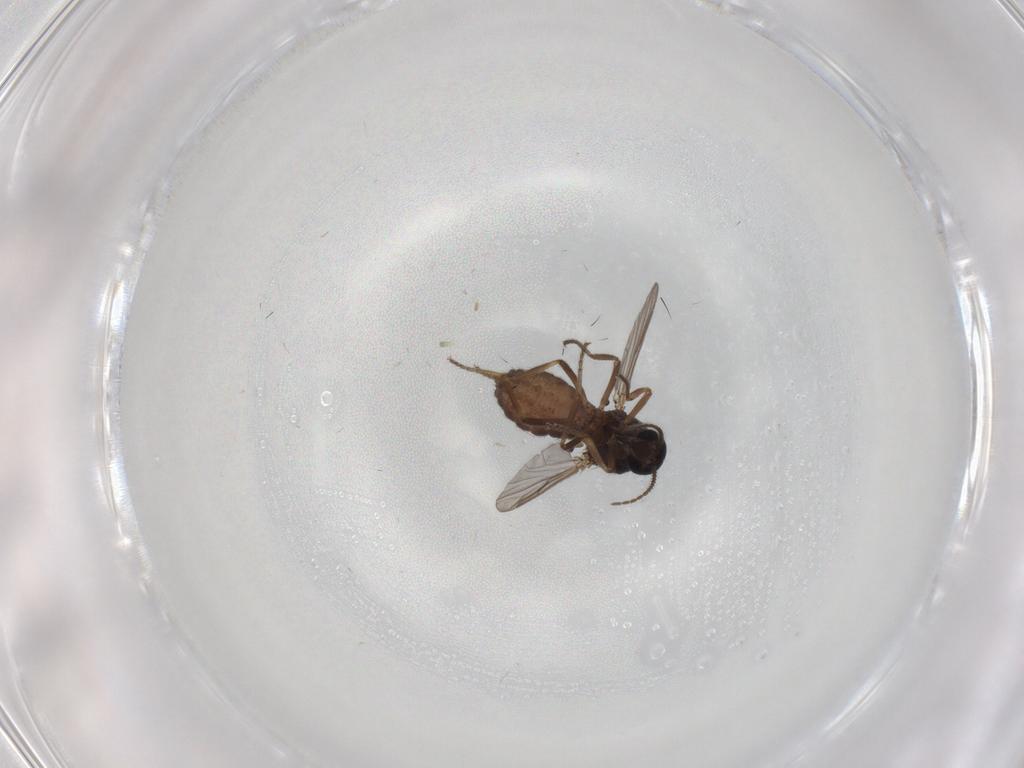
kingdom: Animalia
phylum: Arthropoda
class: Insecta
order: Diptera
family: Ceratopogonidae
